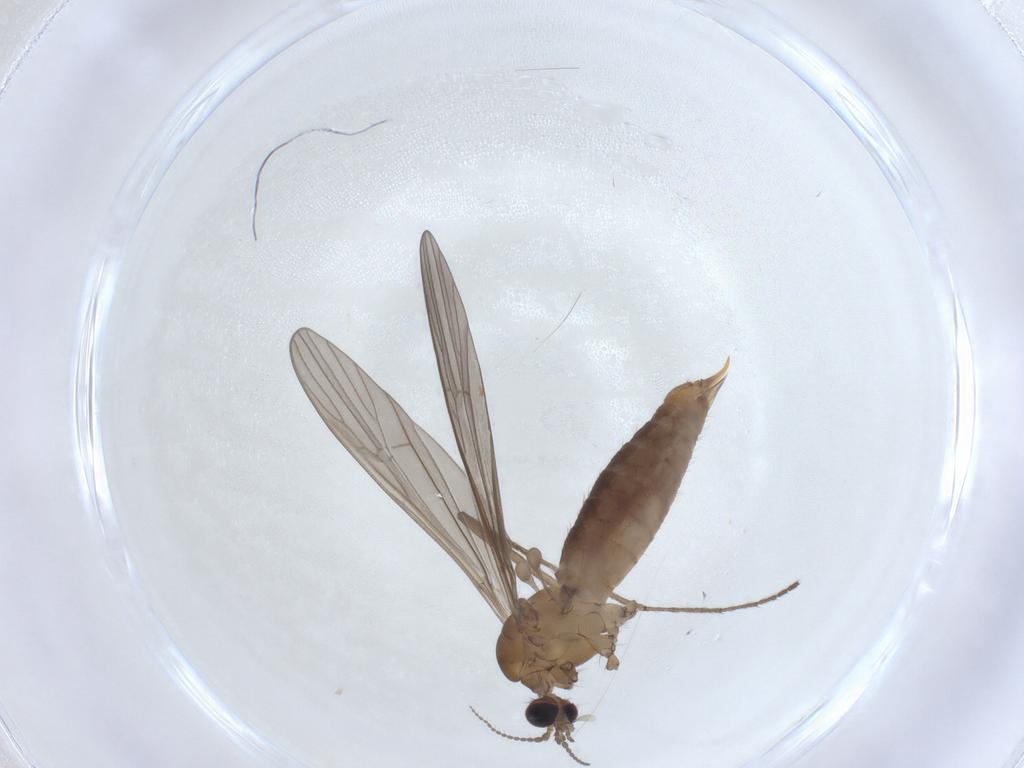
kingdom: Animalia
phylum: Arthropoda
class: Insecta
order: Diptera
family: Limoniidae
